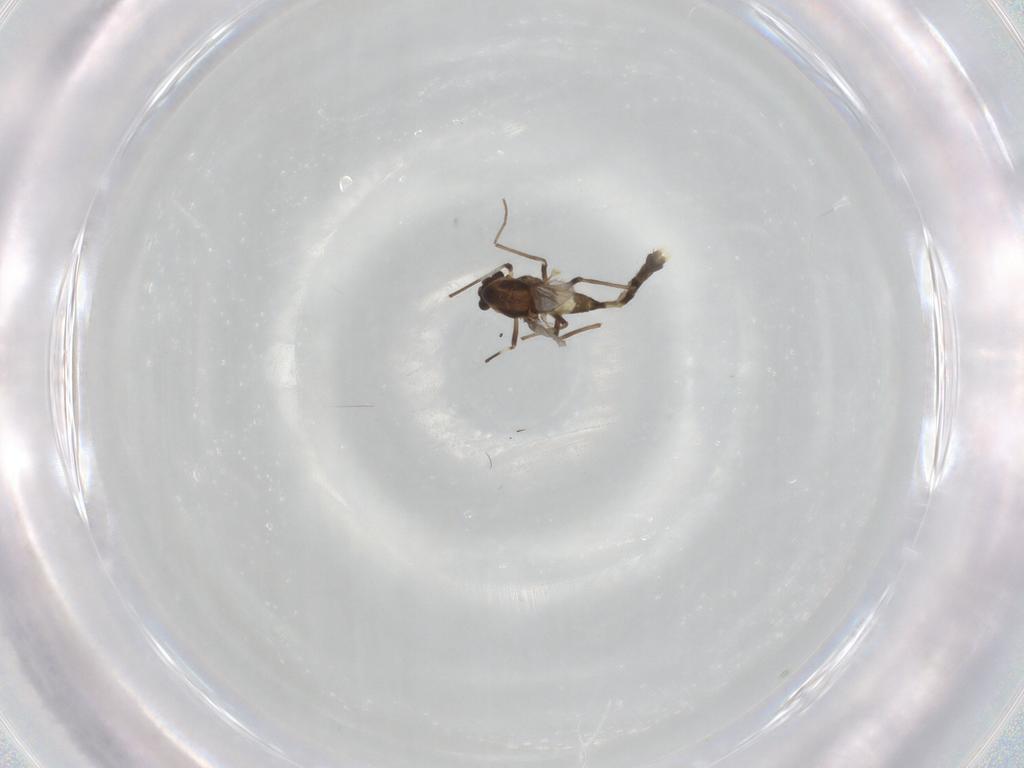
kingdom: Animalia
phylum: Arthropoda
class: Insecta
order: Diptera
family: Chironomidae
